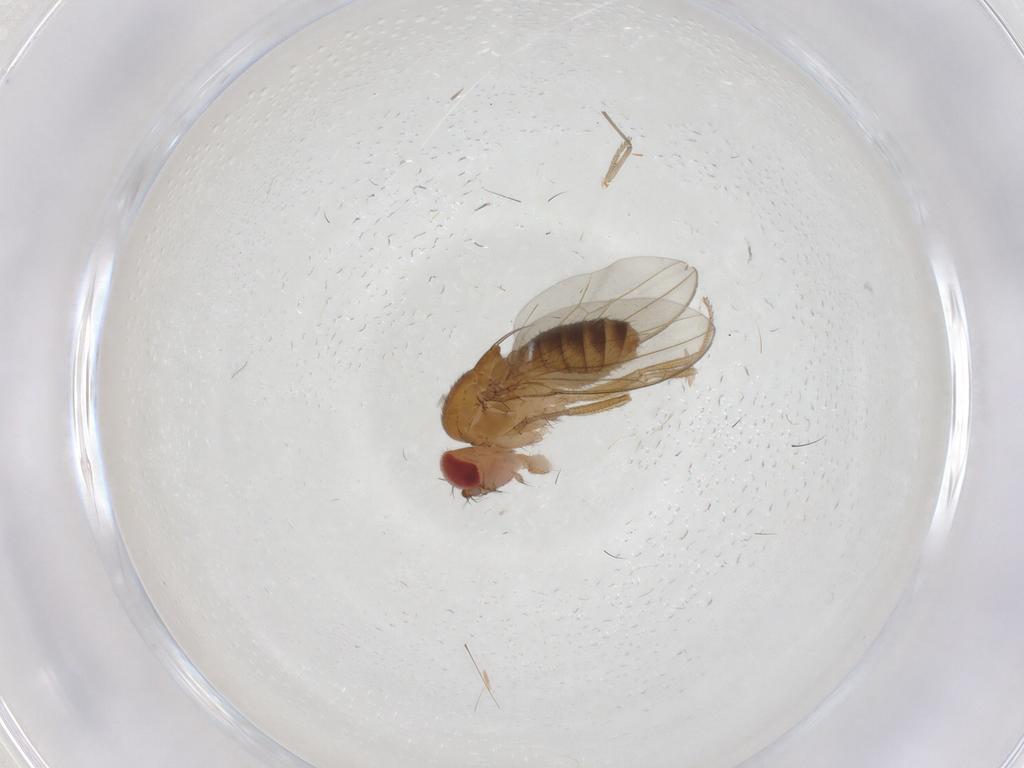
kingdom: Animalia
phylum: Arthropoda
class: Insecta
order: Diptera
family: Drosophilidae
